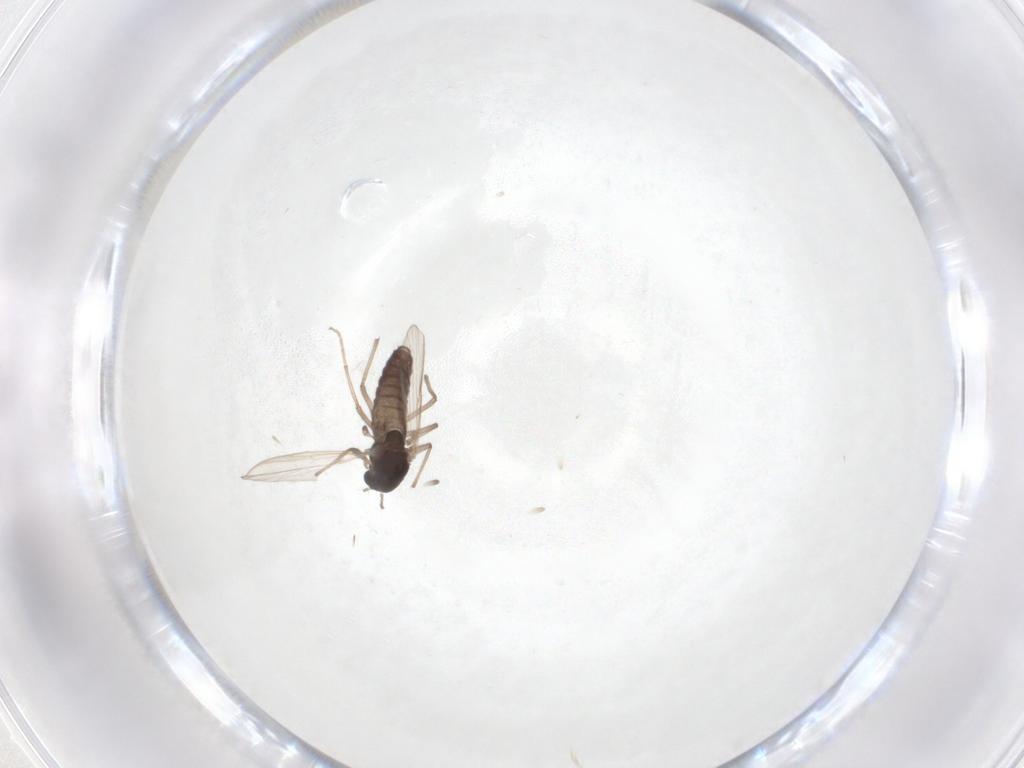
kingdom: Animalia
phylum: Arthropoda
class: Insecta
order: Diptera
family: Chironomidae
